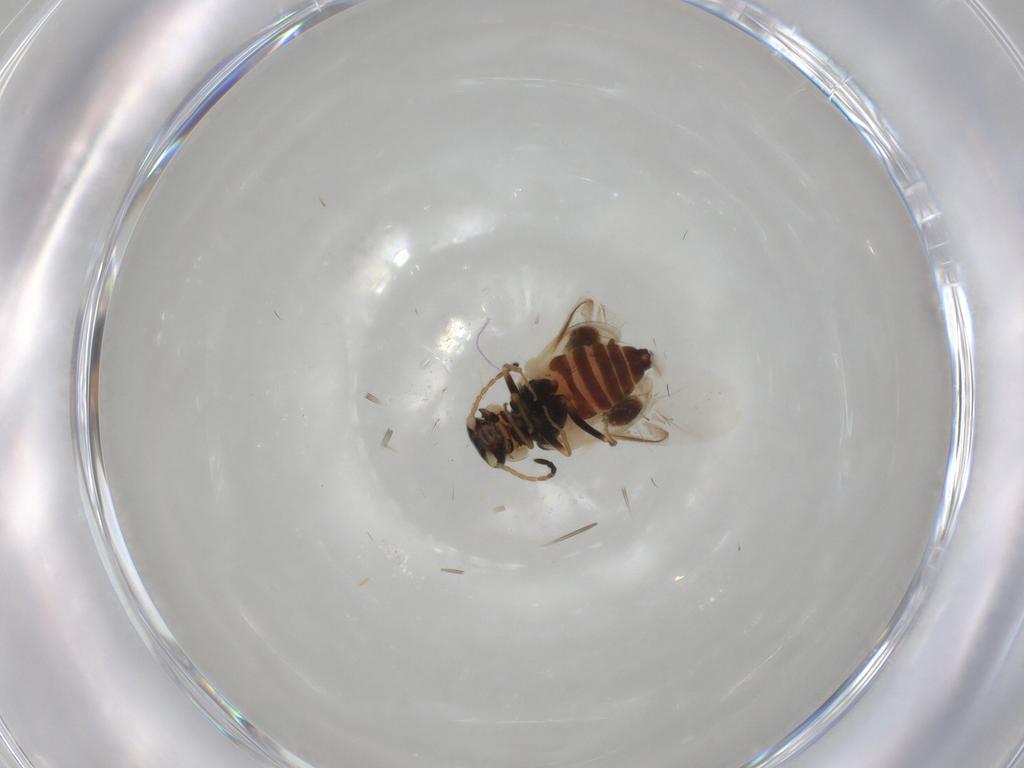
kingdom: Animalia
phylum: Arthropoda
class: Insecta
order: Coleoptera
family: Melyridae
